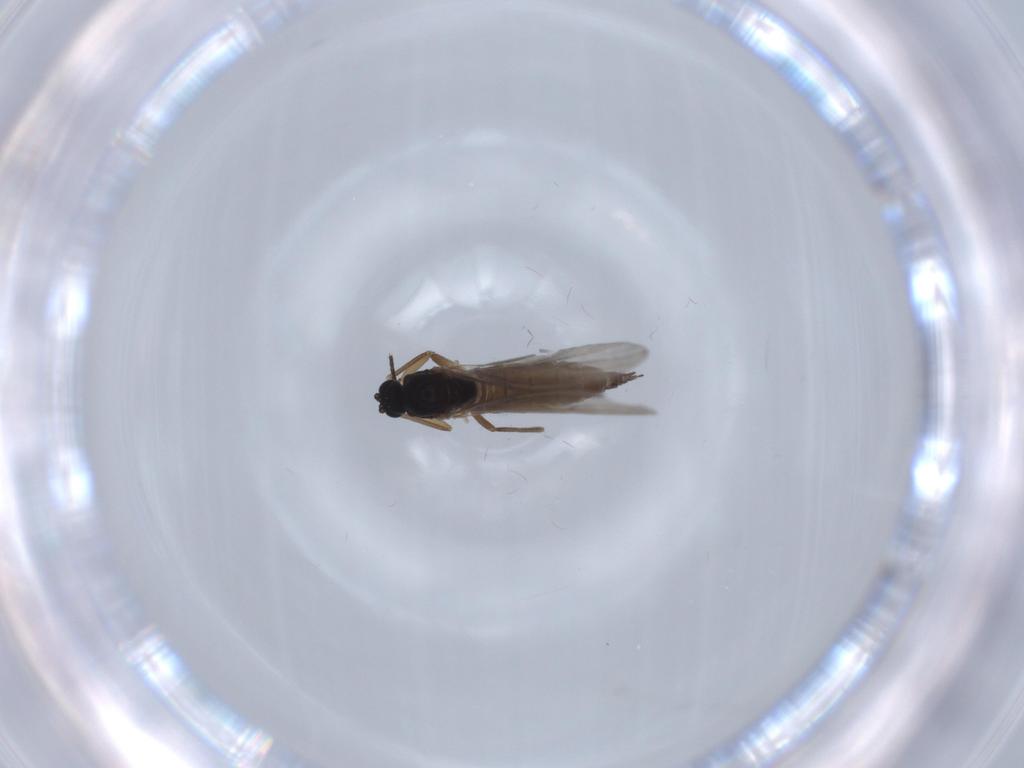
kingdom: Animalia
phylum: Arthropoda
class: Insecta
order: Diptera
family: Sciaridae
